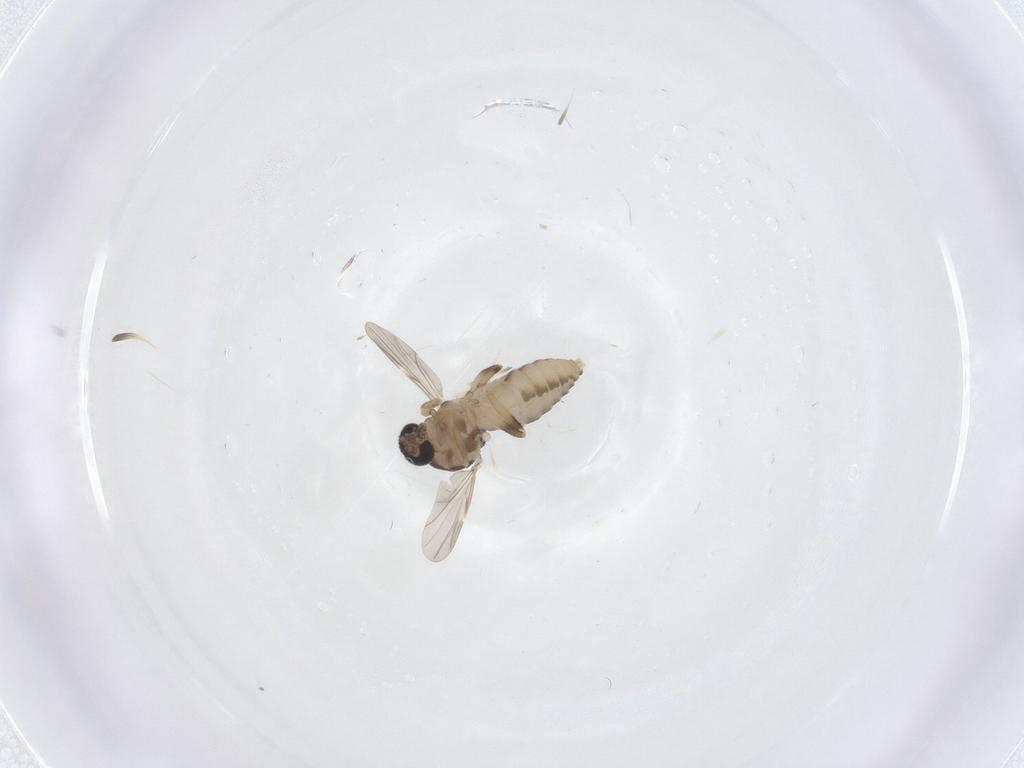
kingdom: Animalia
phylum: Arthropoda
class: Insecta
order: Diptera
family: Ceratopogonidae
